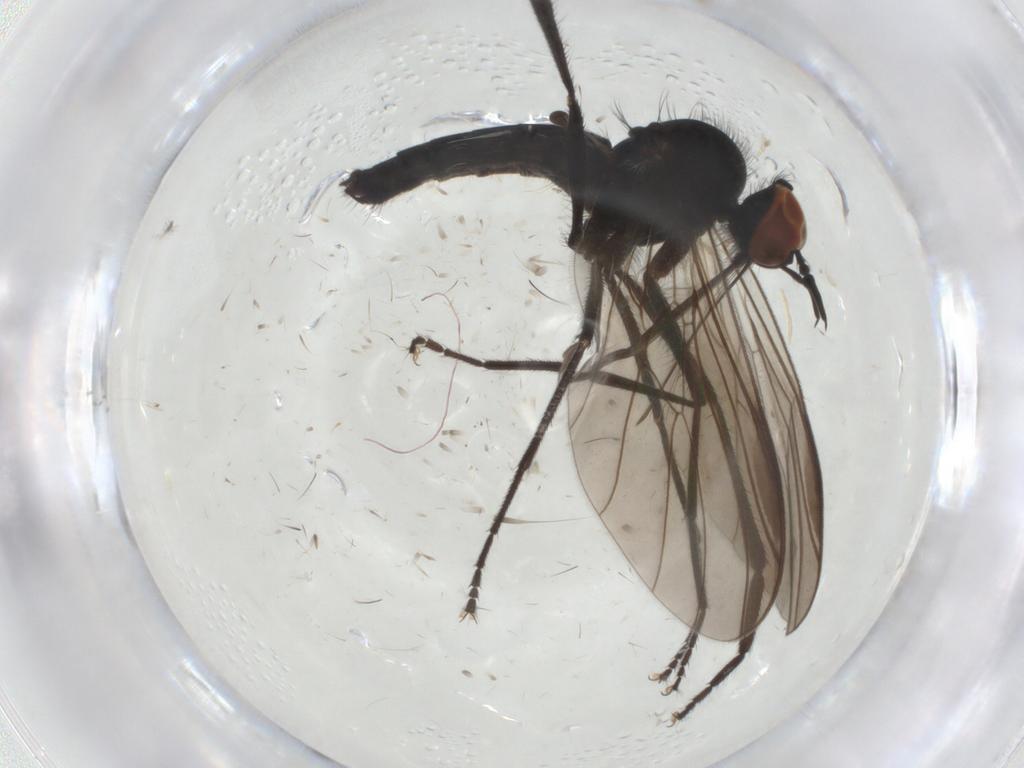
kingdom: Animalia
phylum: Arthropoda
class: Insecta
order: Diptera
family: Empididae
